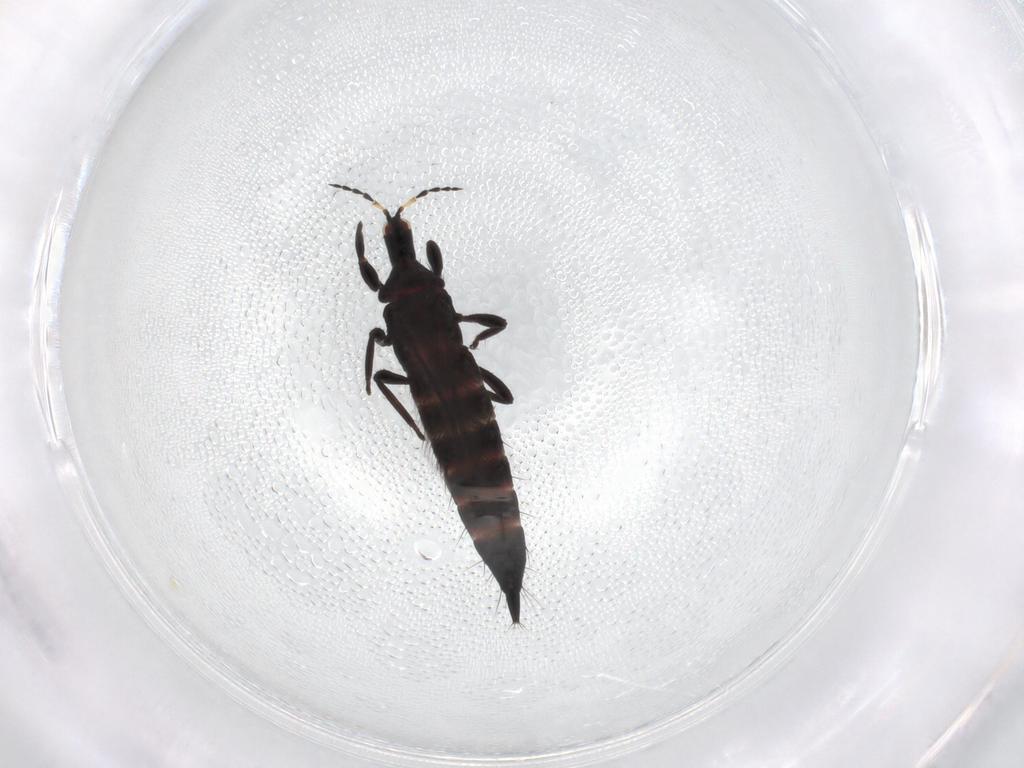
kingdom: Animalia
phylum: Arthropoda
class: Insecta
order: Thysanoptera
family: Phlaeothripidae
